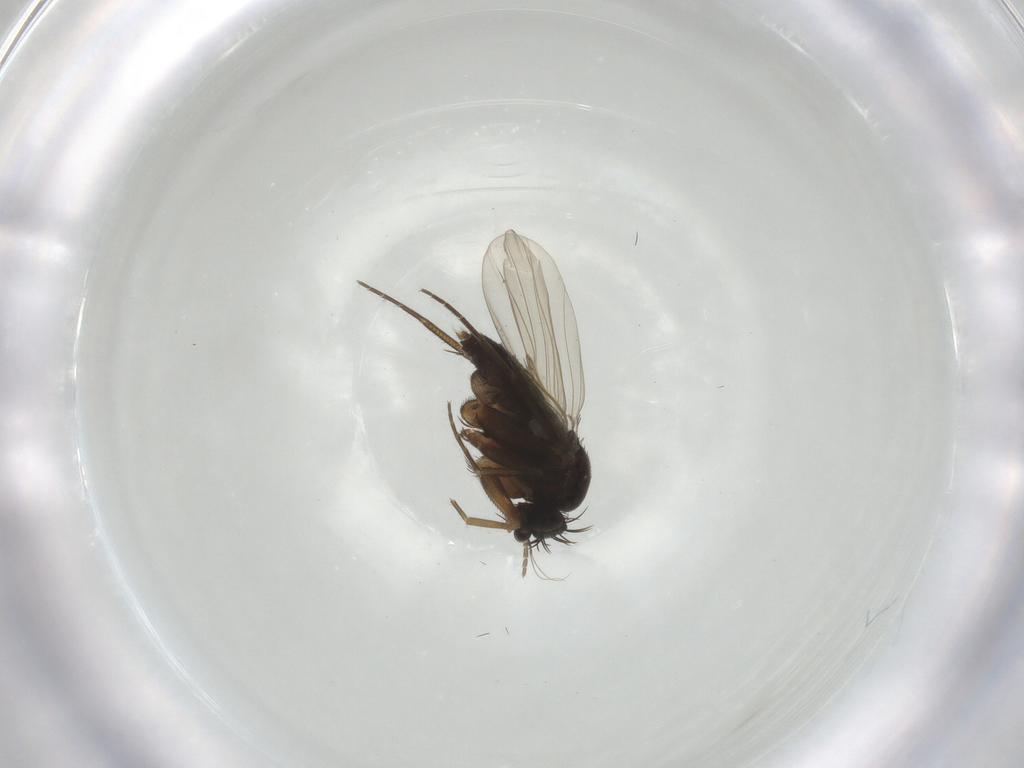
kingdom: Animalia
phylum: Arthropoda
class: Insecta
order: Diptera
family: Phoridae
